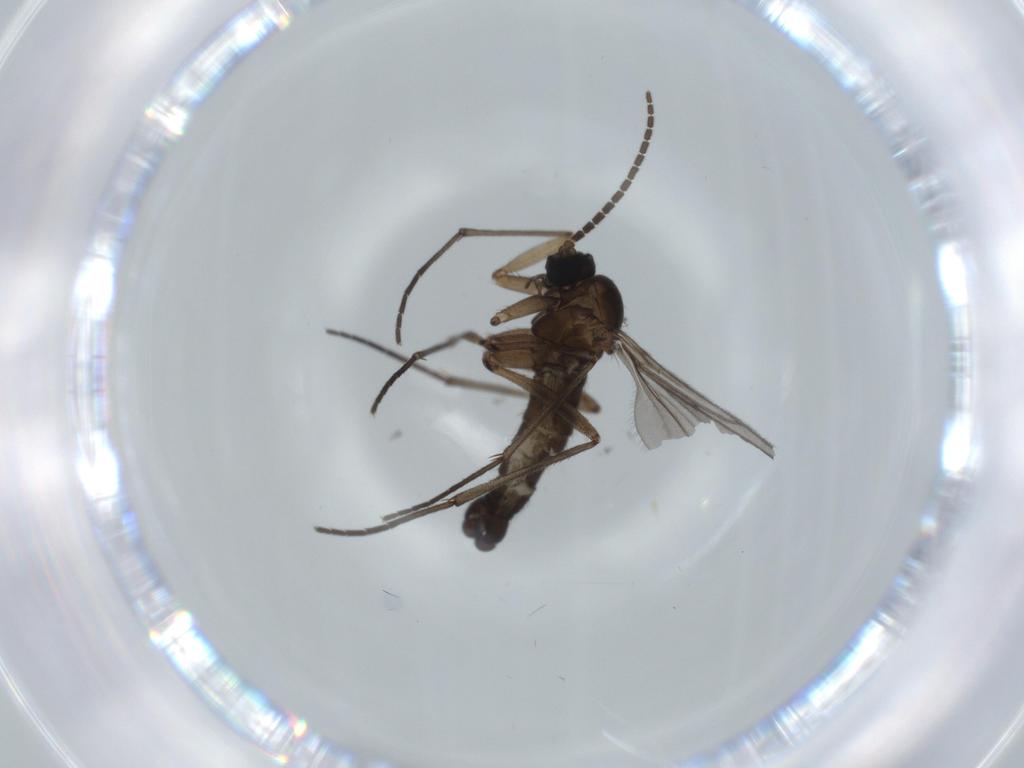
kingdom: Animalia
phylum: Arthropoda
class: Insecta
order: Diptera
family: Sciaridae
